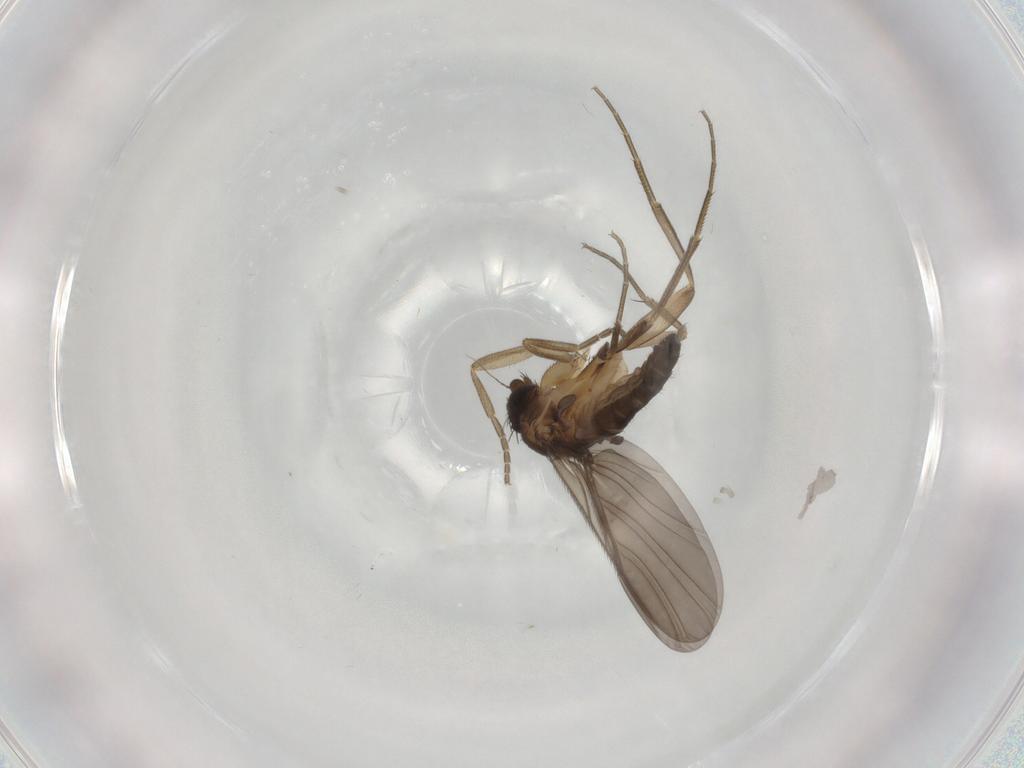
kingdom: Animalia
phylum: Arthropoda
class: Insecta
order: Diptera
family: Phoridae
